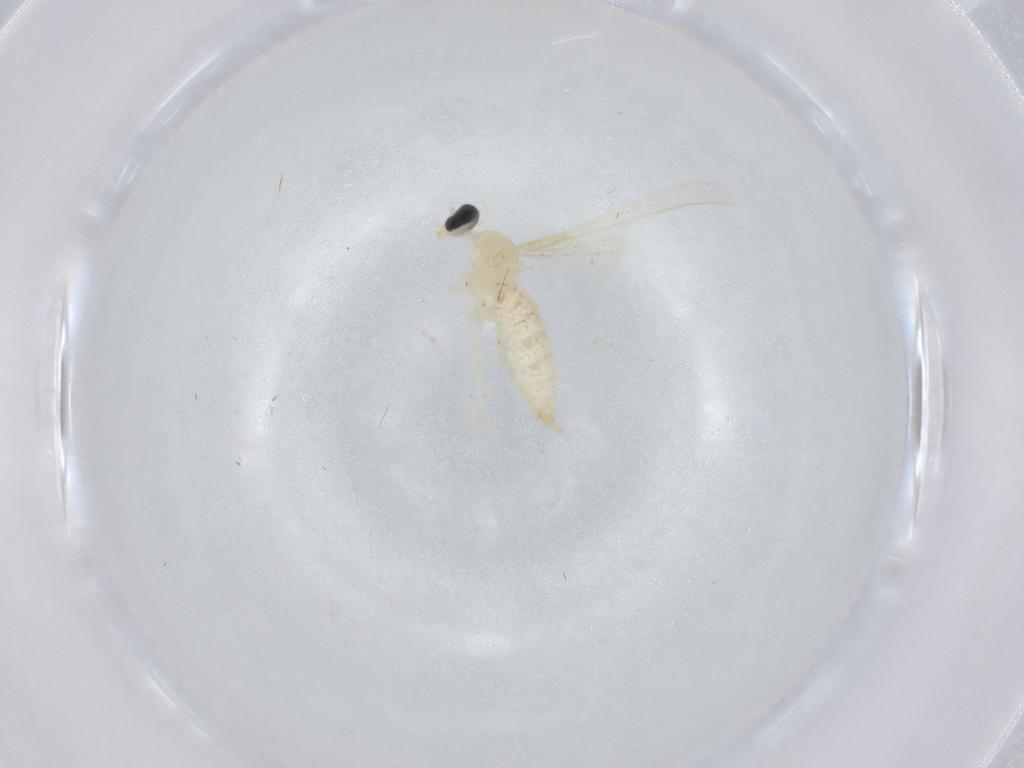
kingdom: Animalia
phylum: Arthropoda
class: Insecta
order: Diptera
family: Cecidomyiidae
